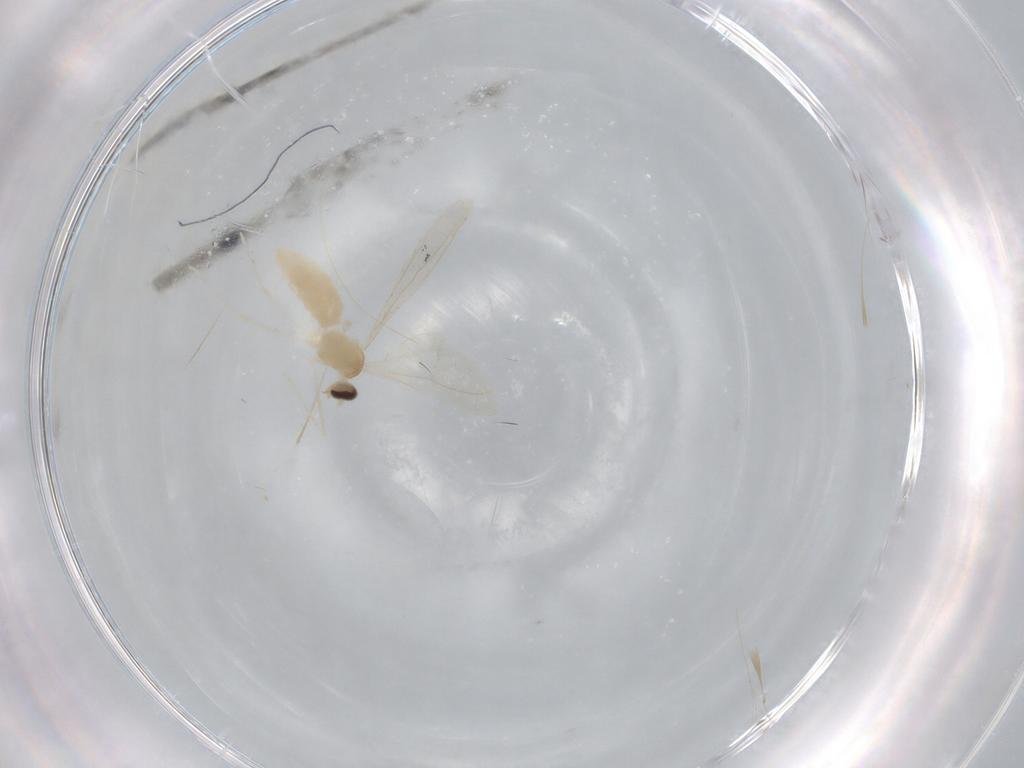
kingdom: Animalia
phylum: Arthropoda
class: Insecta
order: Diptera
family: Cecidomyiidae
